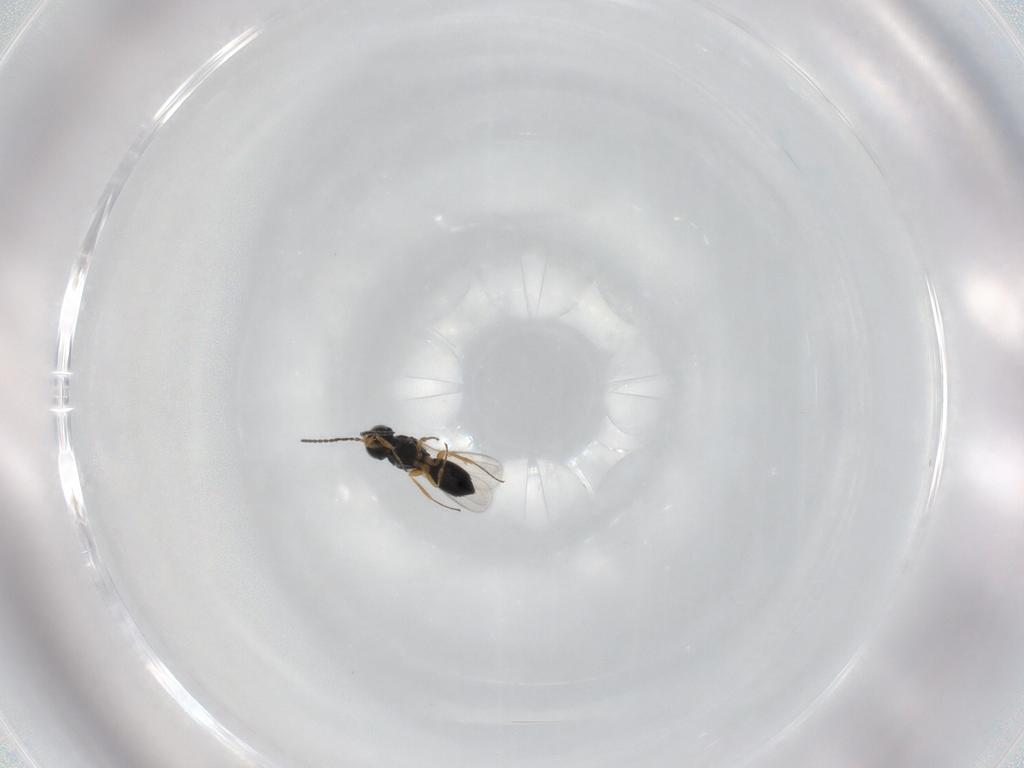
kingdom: Animalia
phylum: Arthropoda
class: Insecta
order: Hymenoptera
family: Scelionidae
